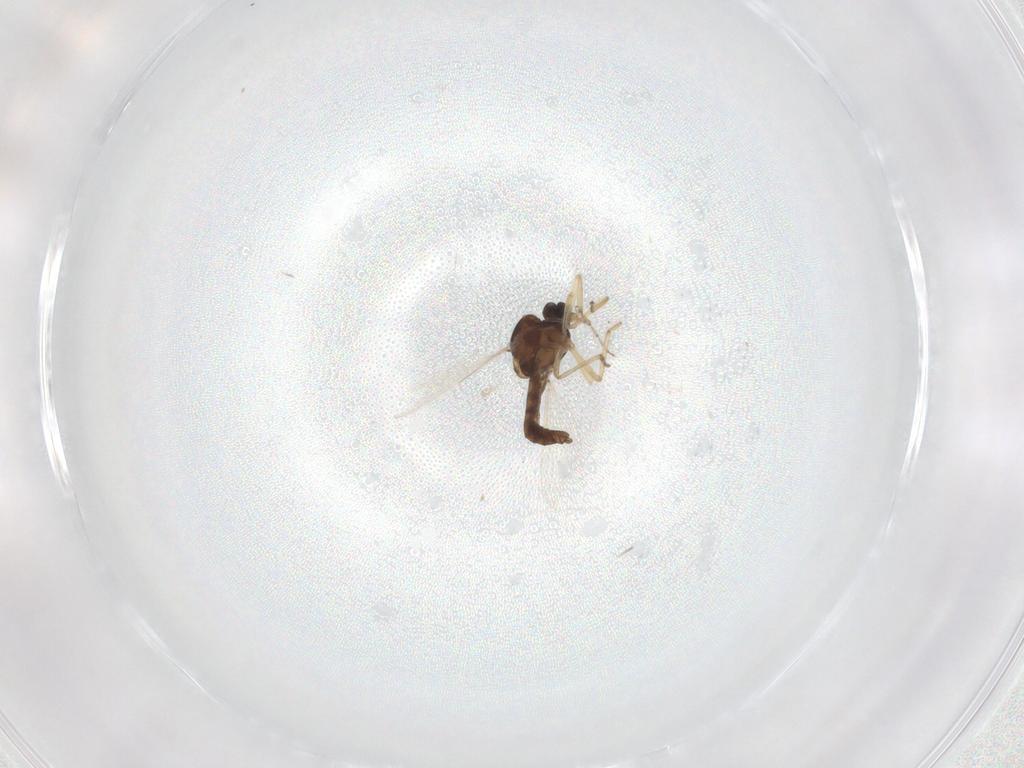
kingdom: Animalia
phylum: Arthropoda
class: Insecta
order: Diptera
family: Ceratopogonidae
